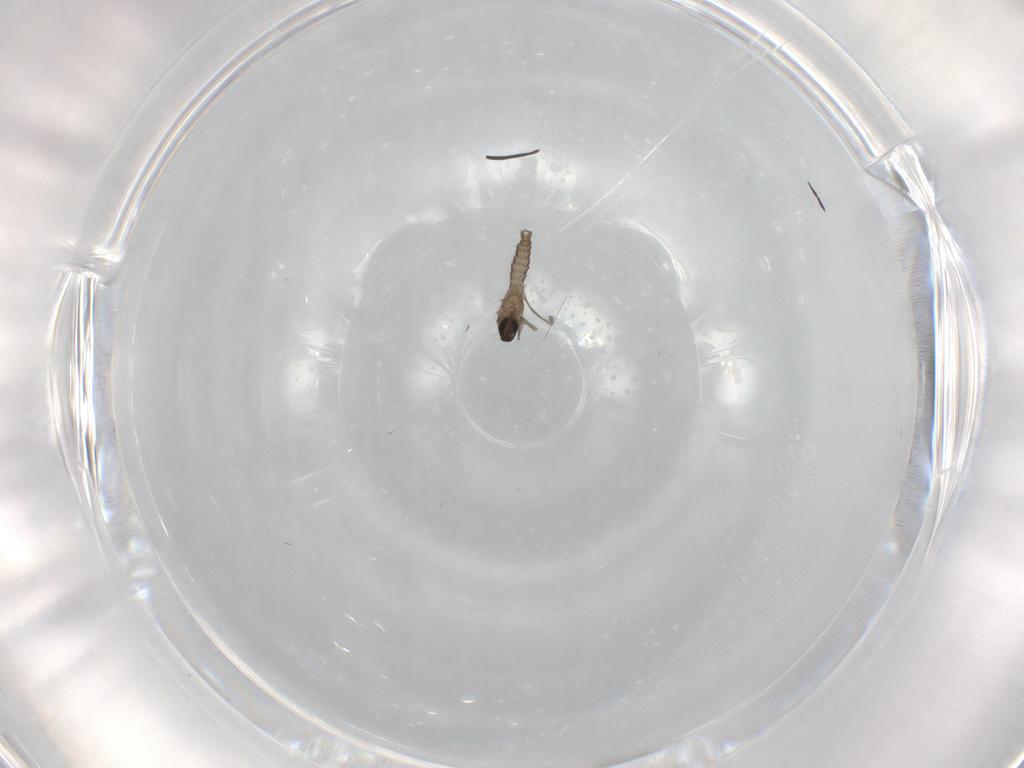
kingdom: Animalia
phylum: Arthropoda
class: Insecta
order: Diptera
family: Cecidomyiidae
